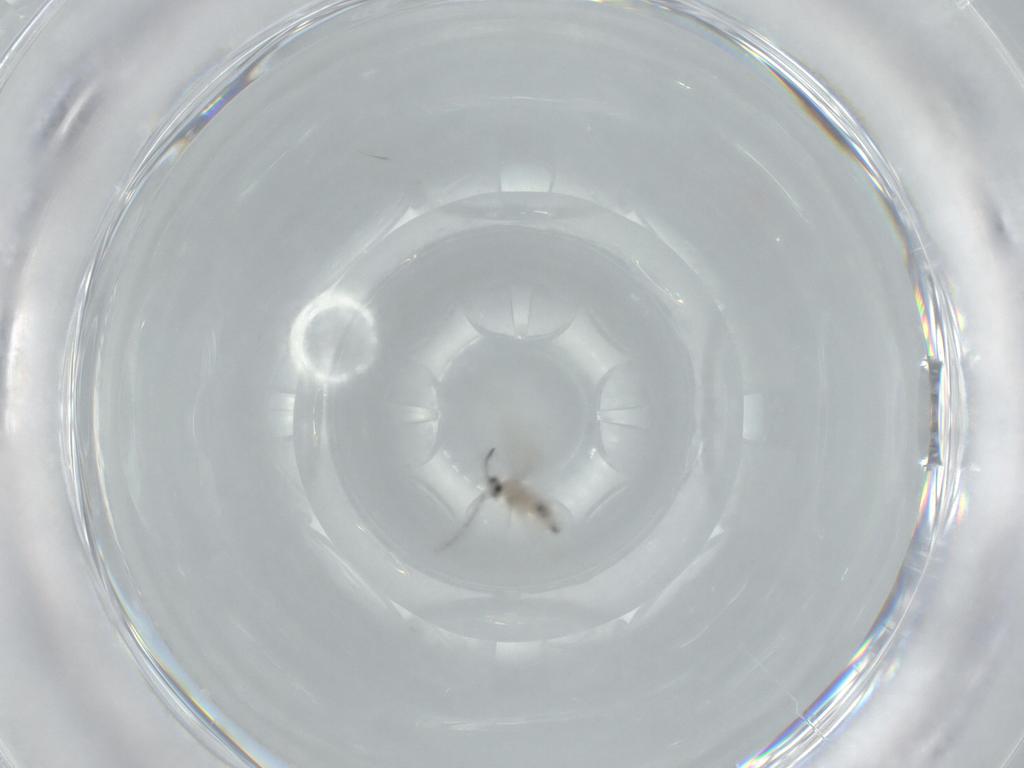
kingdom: Animalia
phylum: Arthropoda
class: Insecta
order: Diptera
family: Cecidomyiidae
